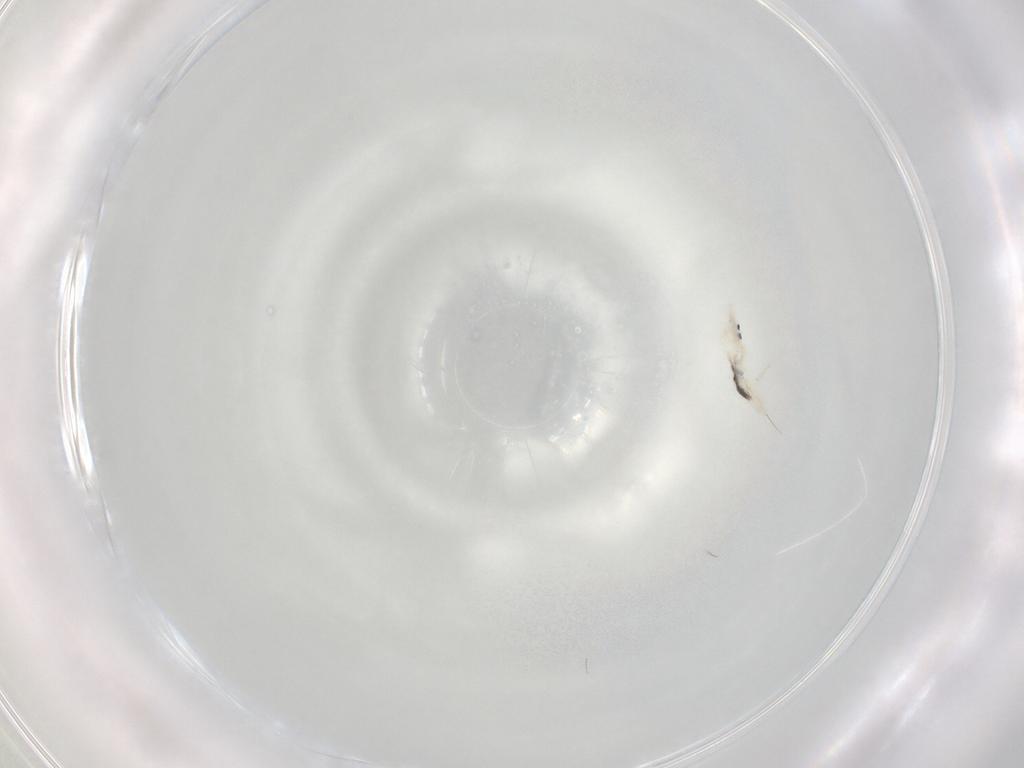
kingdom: Animalia
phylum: Arthropoda
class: Collembola
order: Entomobryomorpha
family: Entomobryidae
